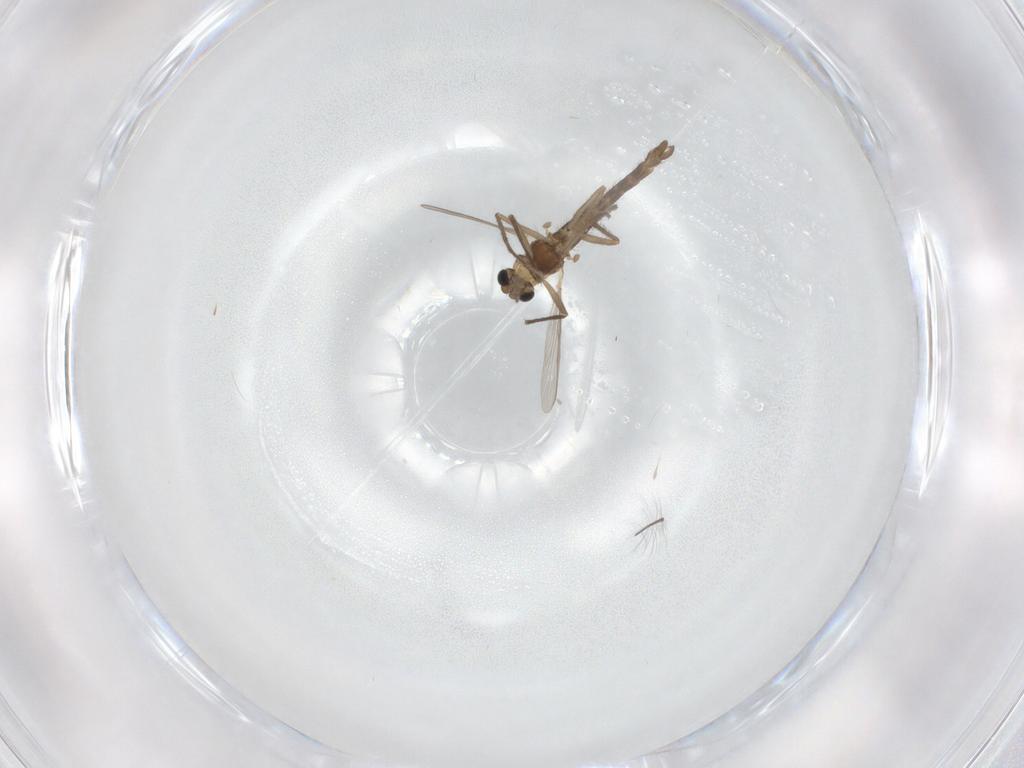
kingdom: Animalia
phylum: Arthropoda
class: Insecta
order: Diptera
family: Chironomidae
